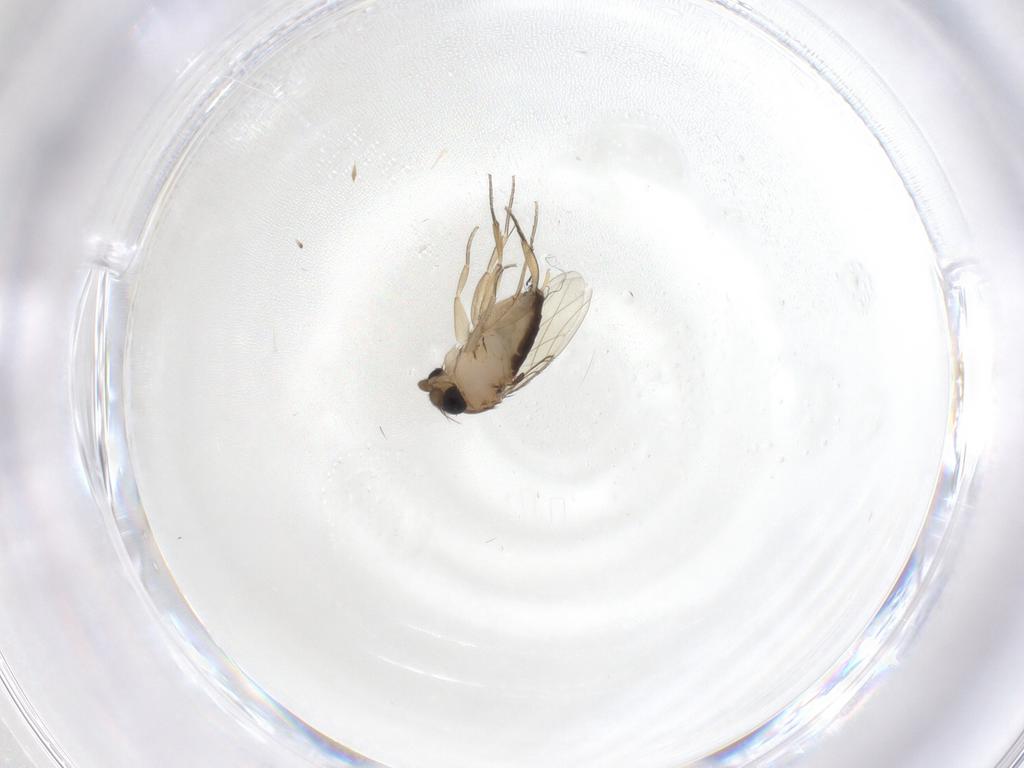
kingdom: Animalia
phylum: Arthropoda
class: Insecta
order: Diptera
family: Phoridae
